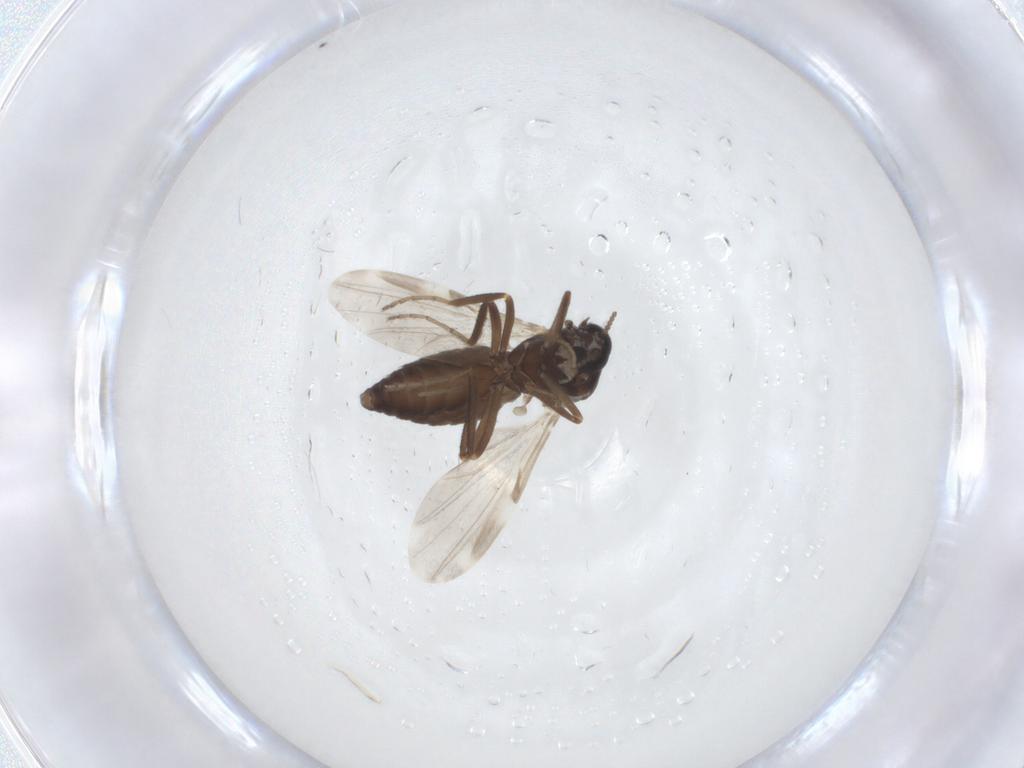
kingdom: Animalia
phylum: Arthropoda
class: Insecta
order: Diptera
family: Ceratopogonidae
